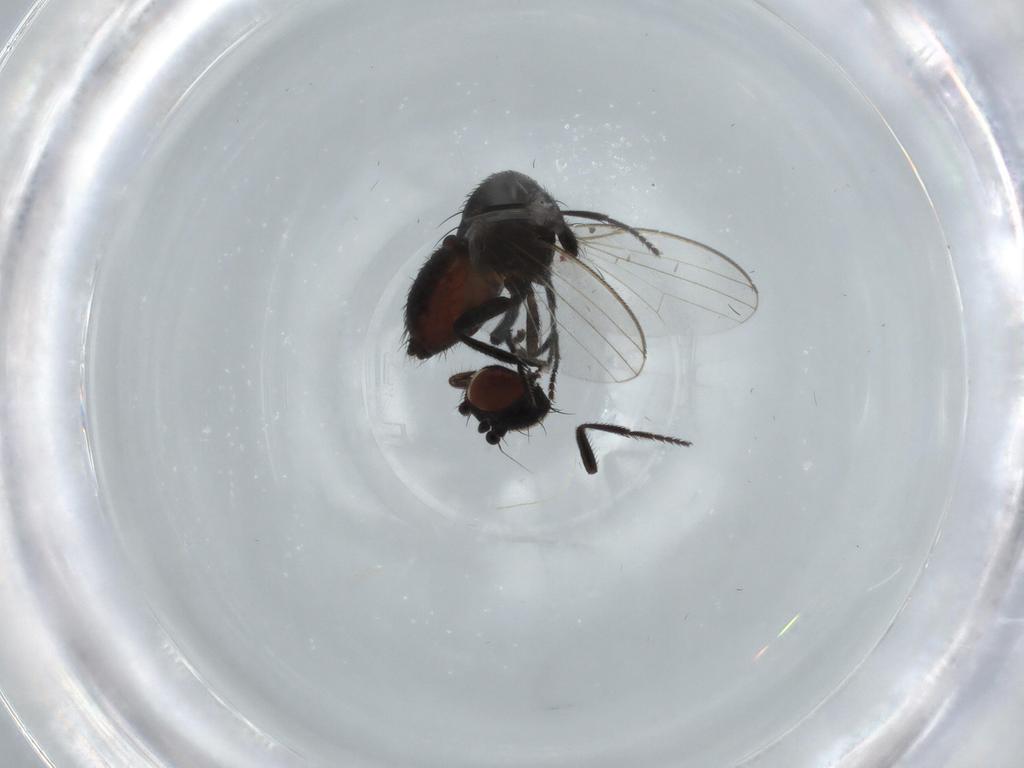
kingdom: Animalia
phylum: Arthropoda
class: Insecta
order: Diptera
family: Milichiidae
